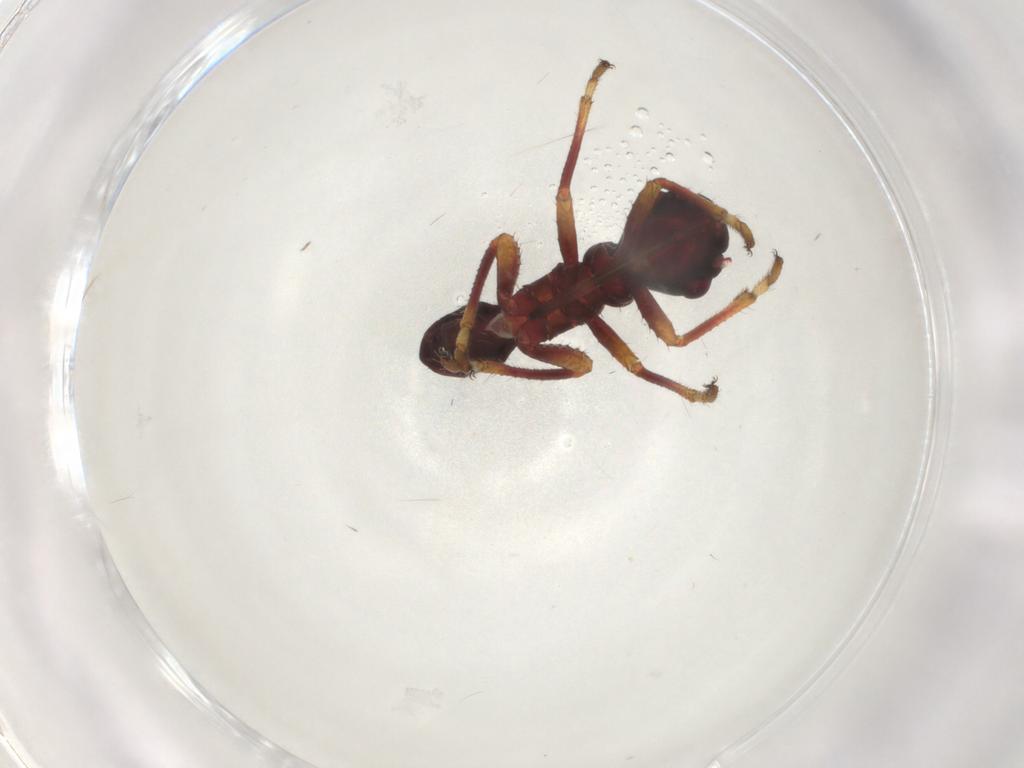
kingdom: Animalia
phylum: Arthropoda
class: Insecta
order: Hemiptera
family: Alydidae
